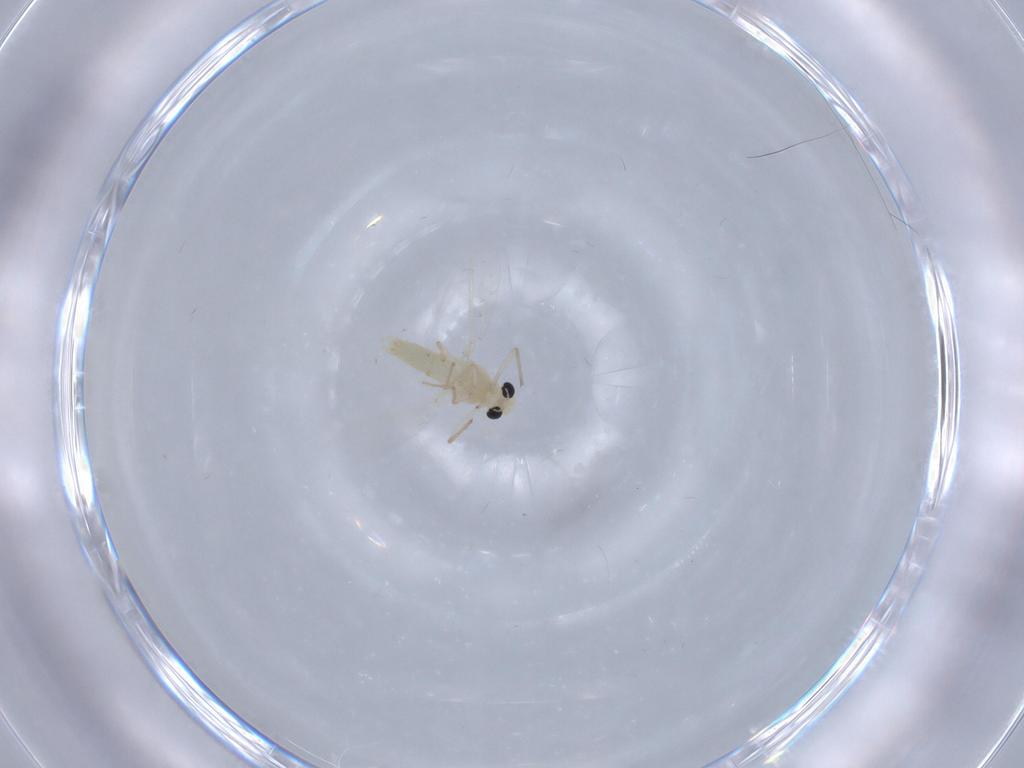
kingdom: Animalia
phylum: Arthropoda
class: Insecta
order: Diptera
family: Chironomidae
